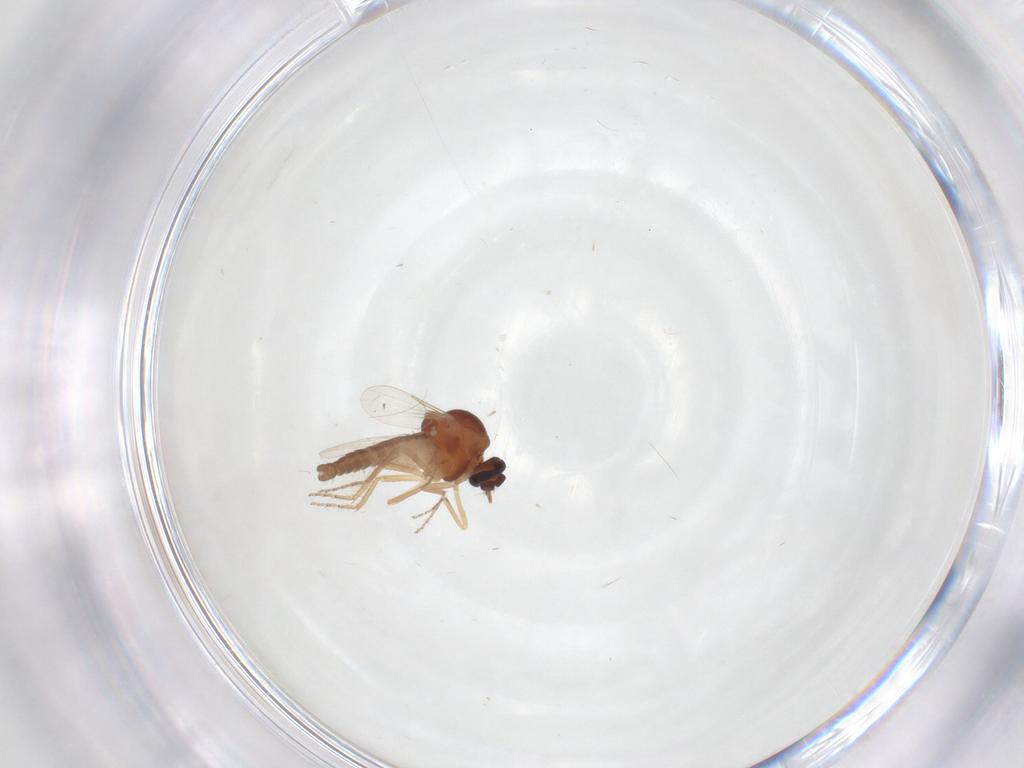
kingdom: Animalia
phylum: Arthropoda
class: Insecta
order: Diptera
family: Ceratopogonidae
